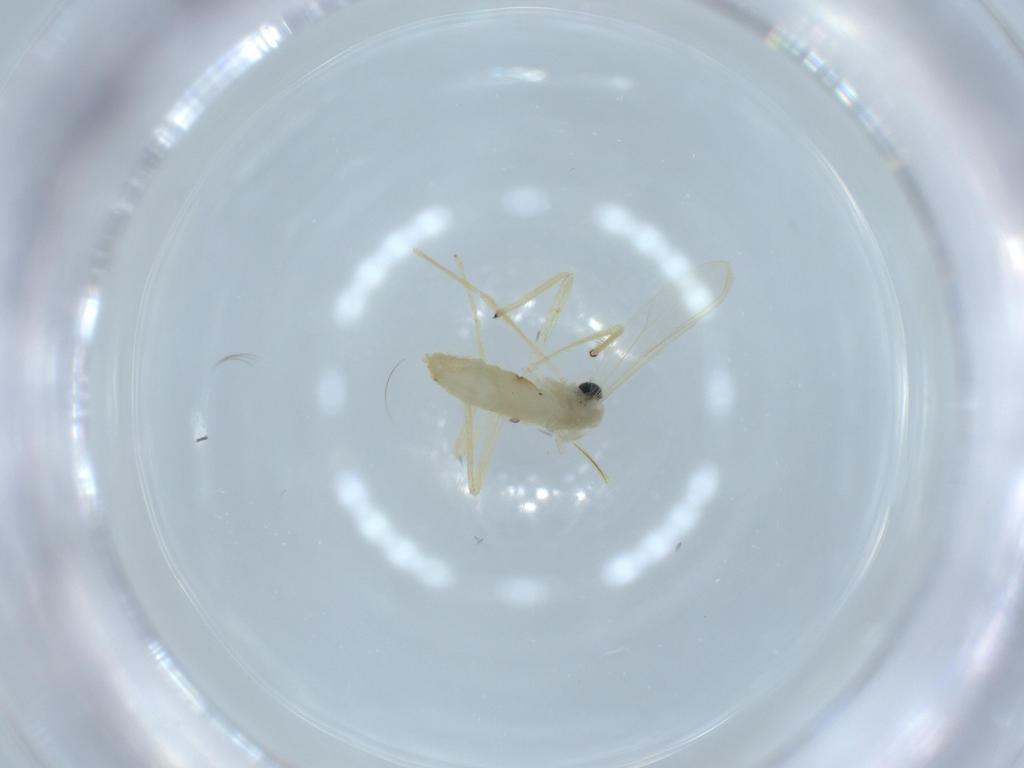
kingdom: Animalia
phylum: Arthropoda
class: Insecta
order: Diptera
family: Chironomidae
